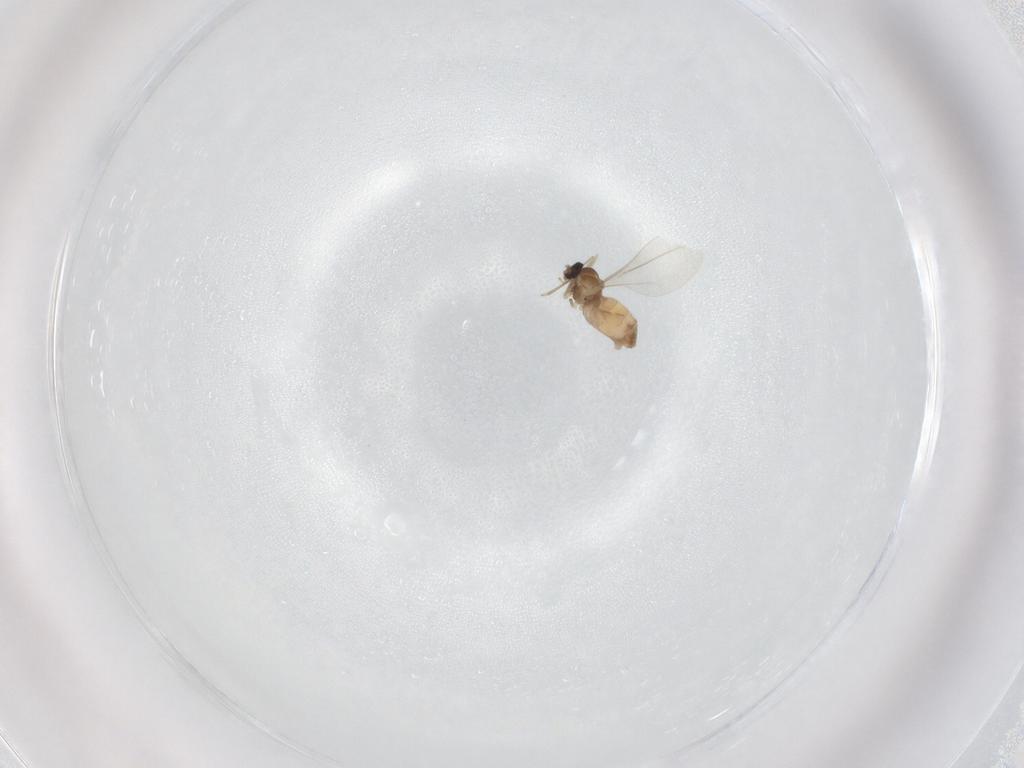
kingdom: Animalia
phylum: Arthropoda
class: Insecta
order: Diptera
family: Cecidomyiidae
